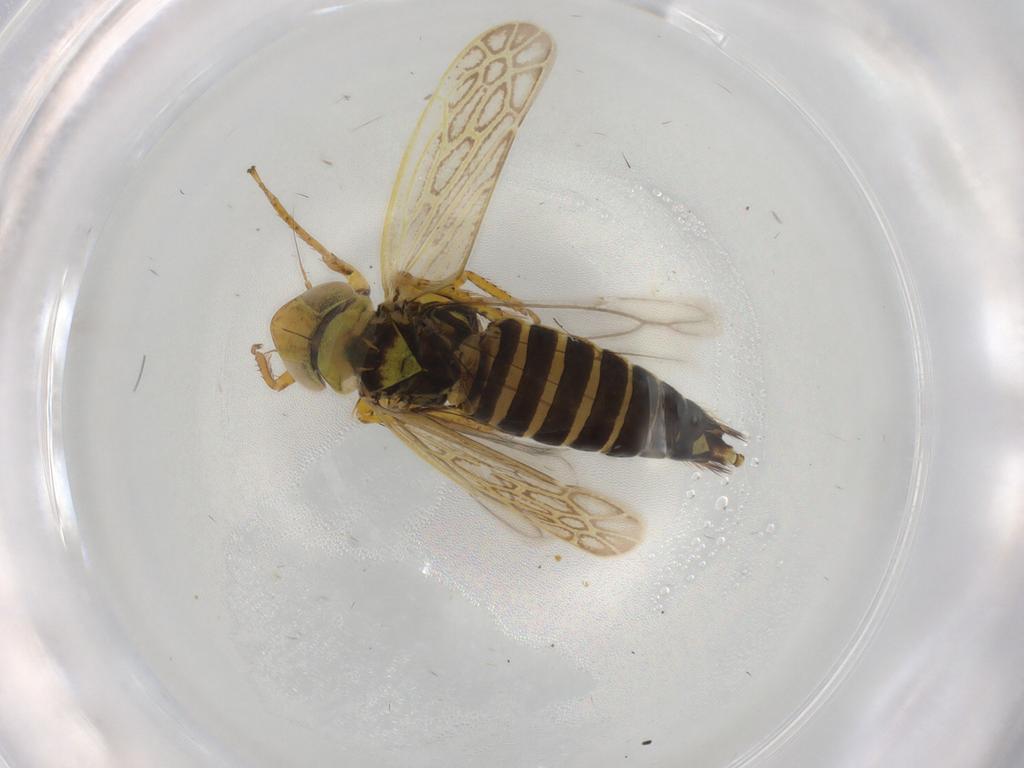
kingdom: Animalia
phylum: Arthropoda
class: Insecta
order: Hemiptera
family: Cicadellidae
